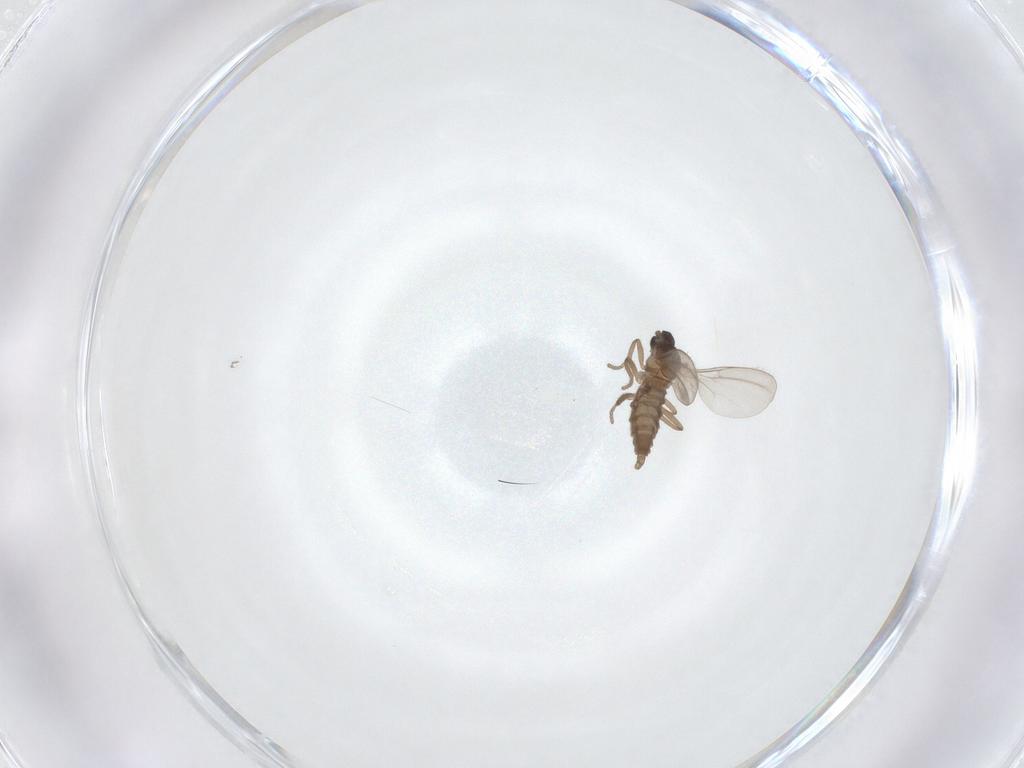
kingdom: Animalia
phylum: Arthropoda
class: Insecta
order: Diptera
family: Cecidomyiidae
